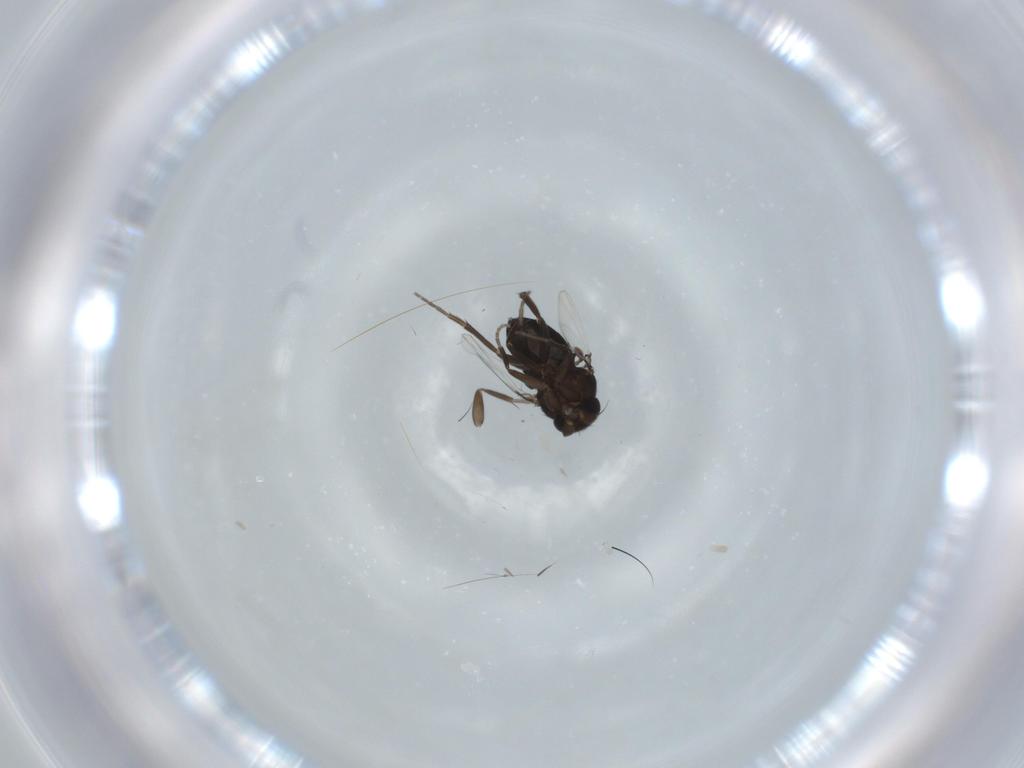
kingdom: Animalia
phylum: Arthropoda
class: Insecta
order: Diptera
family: Phoridae
